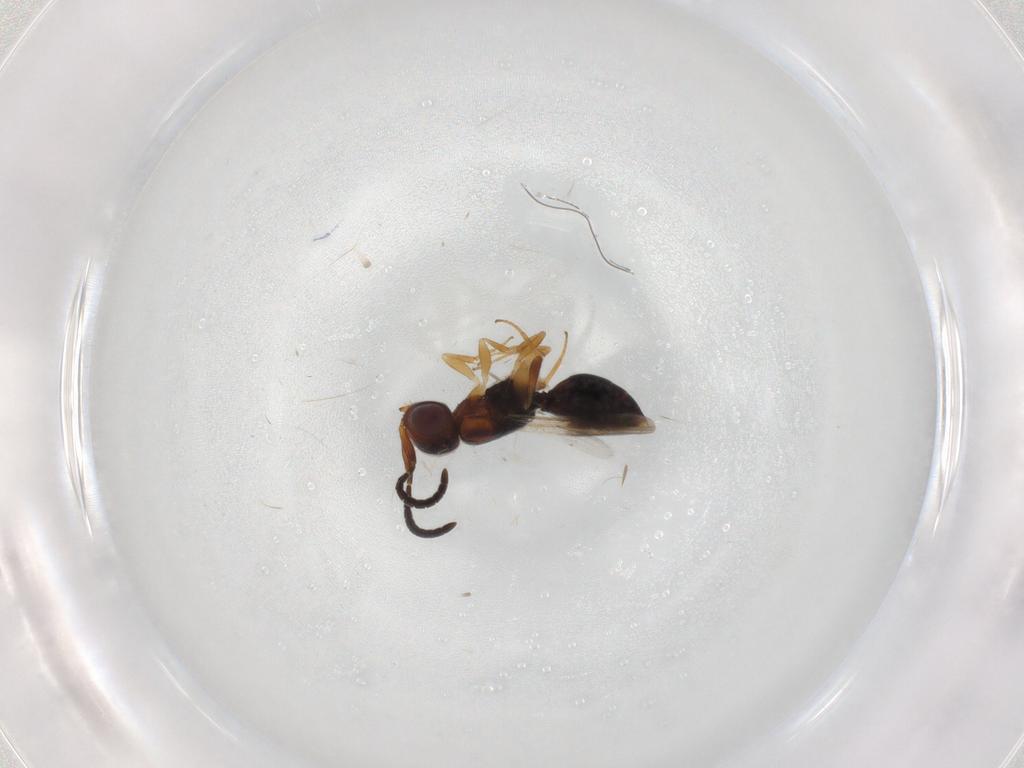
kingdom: Animalia
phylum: Arthropoda
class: Insecta
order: Hymenoptera
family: Ichneumonidae
